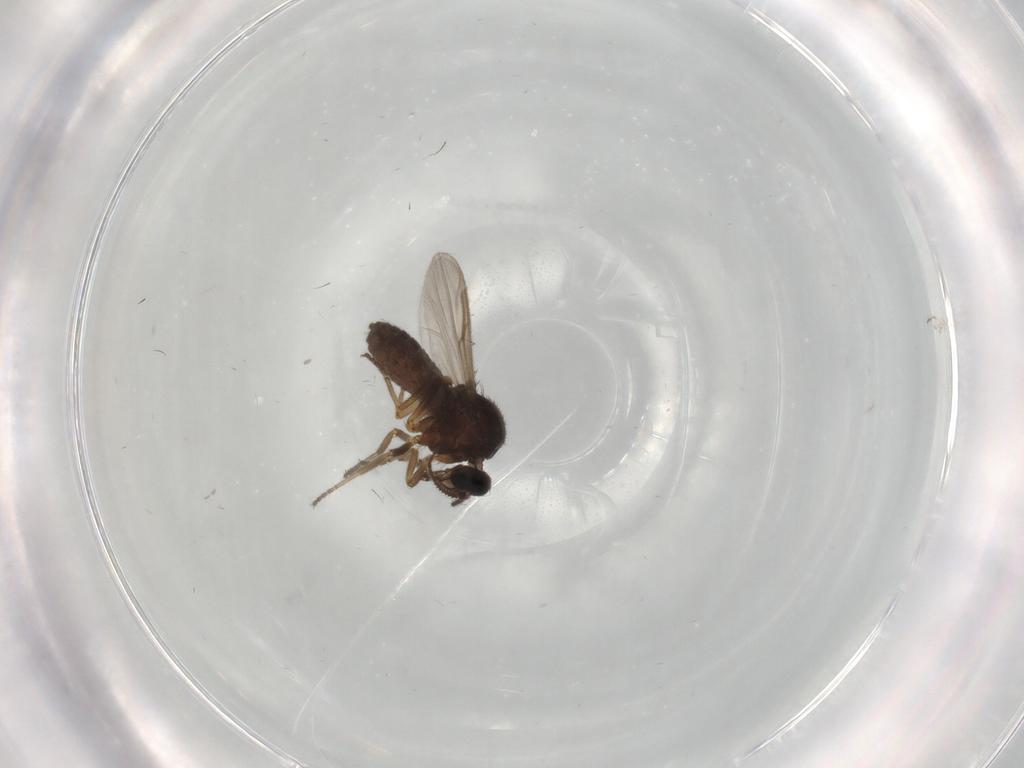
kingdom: Animalia
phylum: Arthropoda
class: Insecta
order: Diptera
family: Ceratopogonidae
